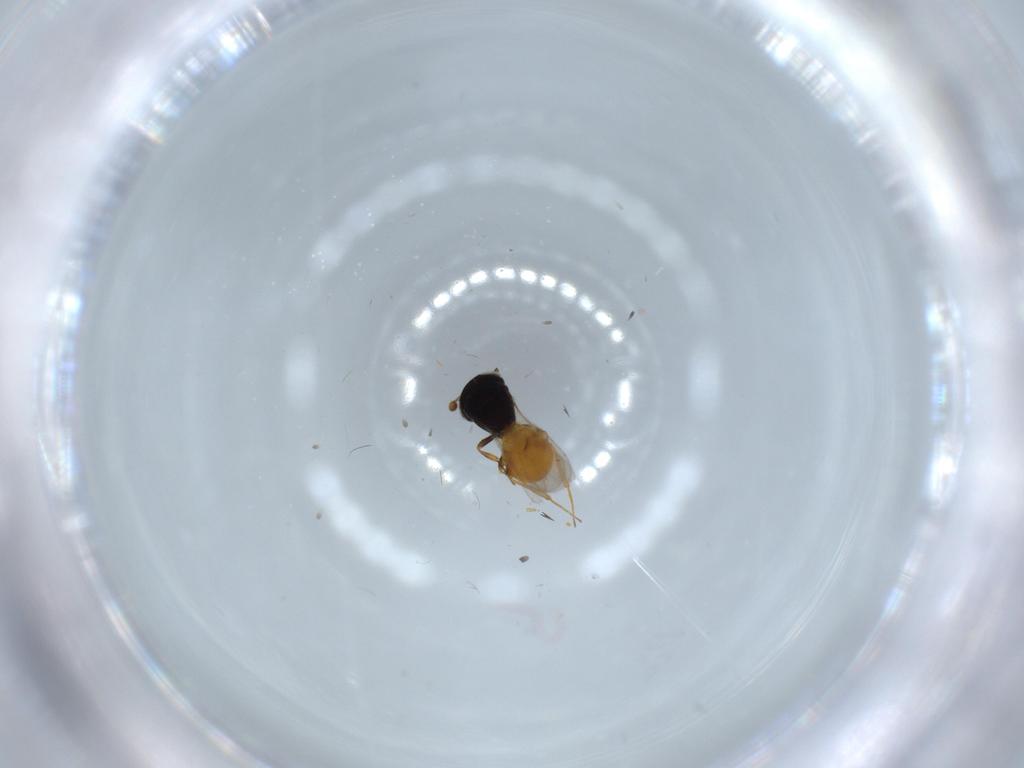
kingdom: Animalia
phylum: Arthropoda
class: Insecta
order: Hymenoptera
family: Scelionidae
